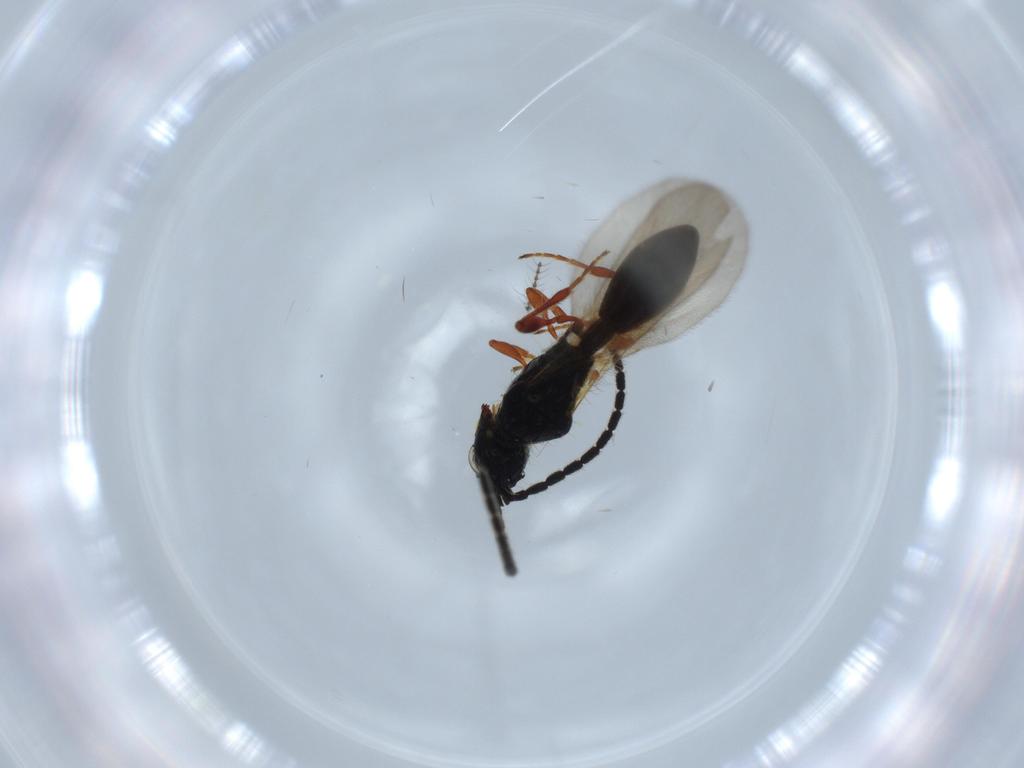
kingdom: Animalia
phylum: Arthropoda
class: Insecta
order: Hymenoptera
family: Diapriidae
